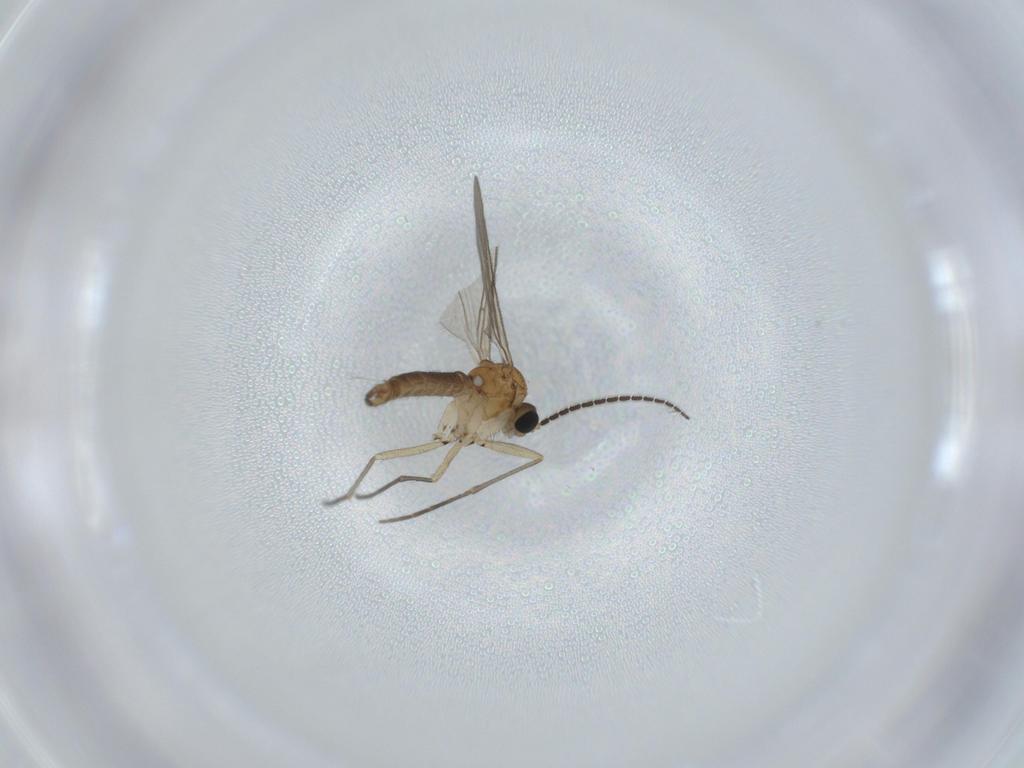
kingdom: Animalia
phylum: Arthropoda
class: Insecta
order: Diptera
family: Sciaridae
